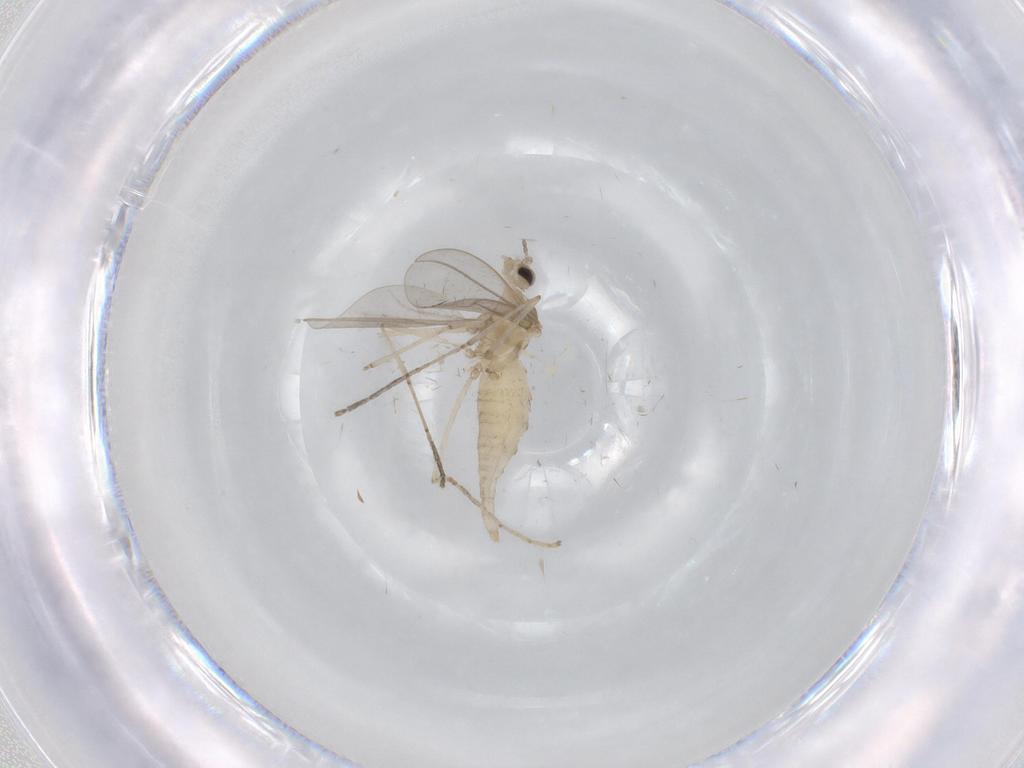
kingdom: Animalia
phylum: Arthropoda
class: Insecta
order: Diptera
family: Cecidomyiidae
